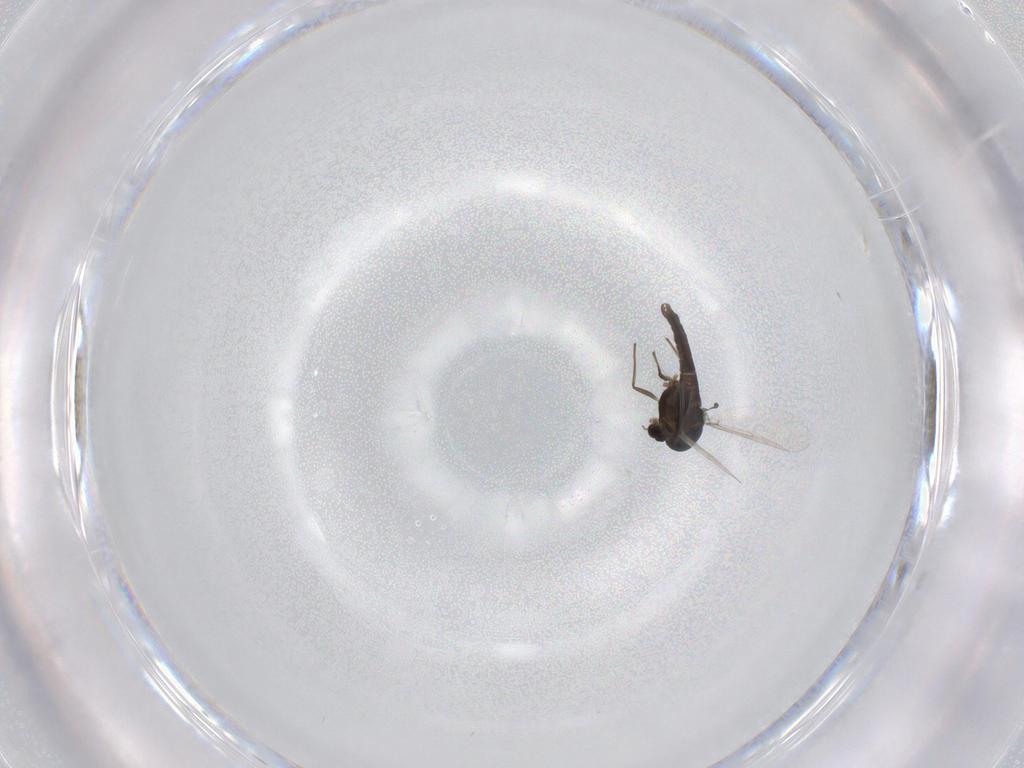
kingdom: Animalia
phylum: Arthropoda
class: Insecta
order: Diptera
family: Chironomidae
